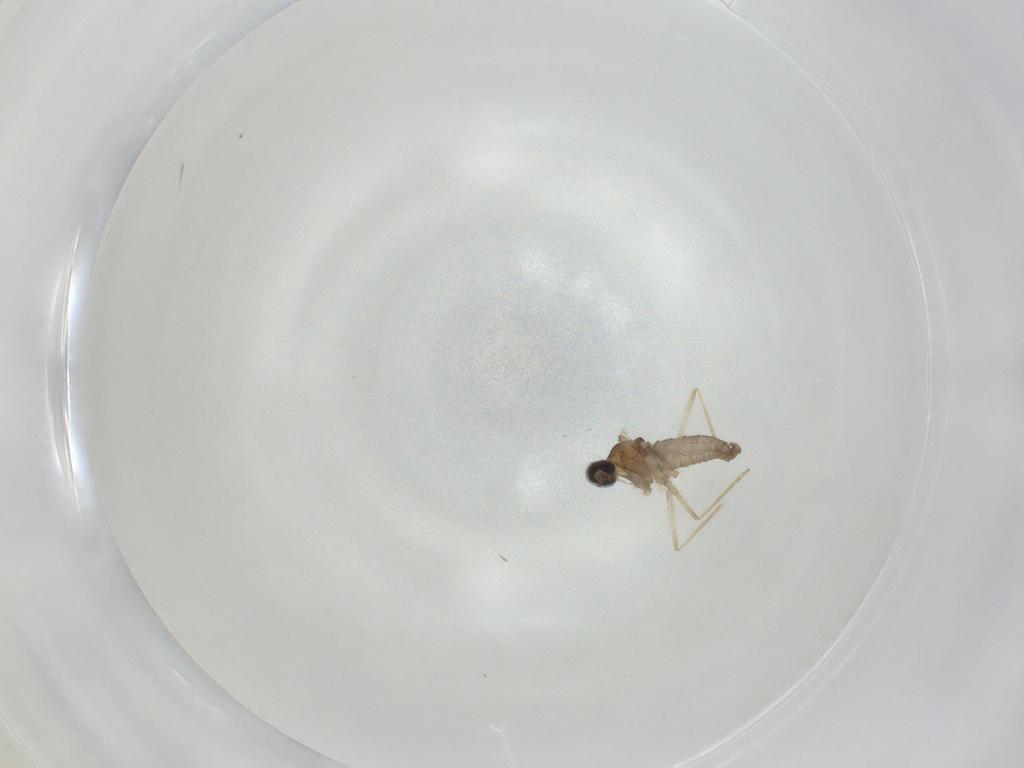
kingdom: Animalia
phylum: Arthropoda
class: Insecta
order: Diptera
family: Cecidomyiidae
